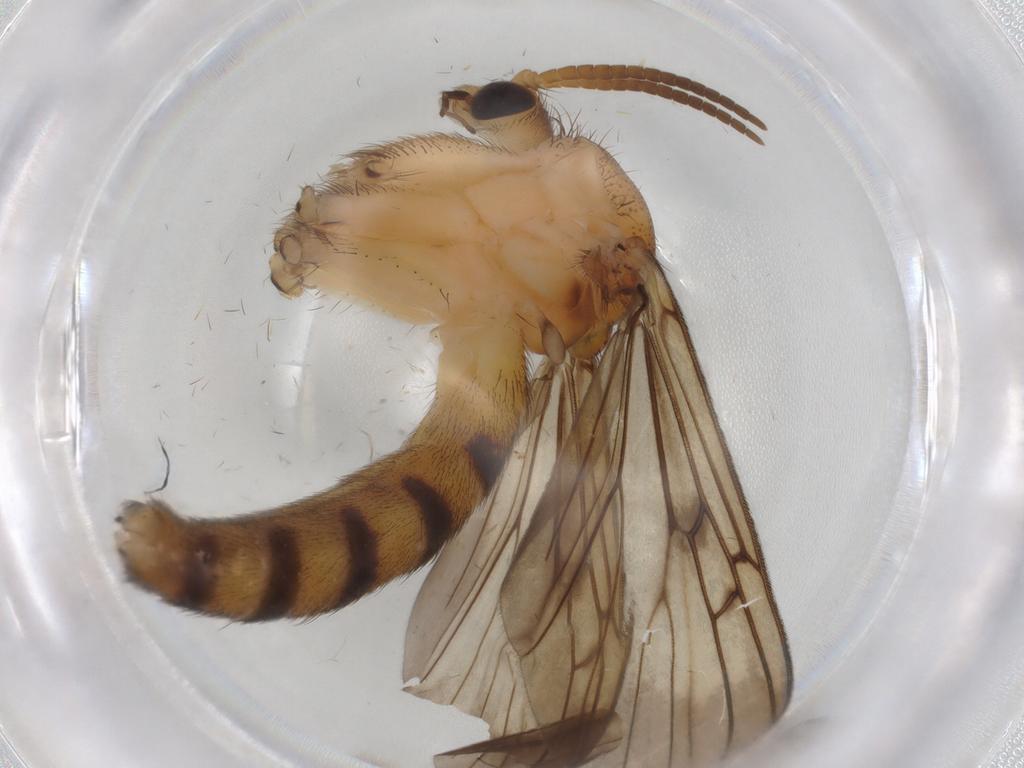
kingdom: Animalia
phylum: Arthropoda
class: Insecta
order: Diptera
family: Mycetophilidae
